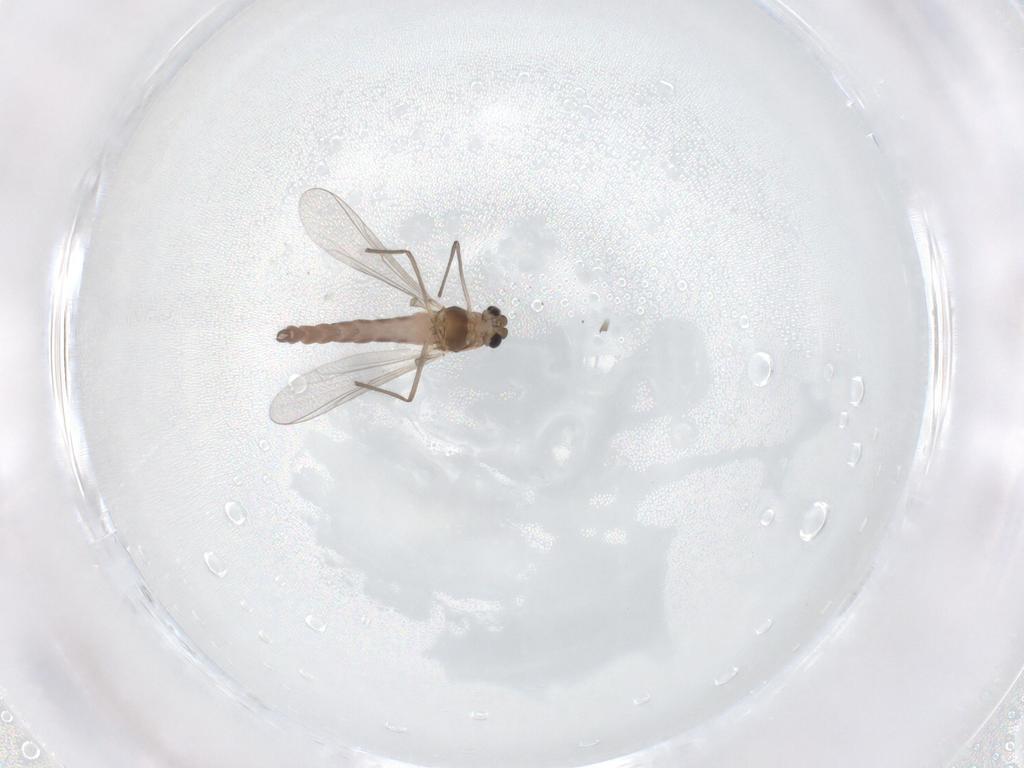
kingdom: Animalia
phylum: Arthropoda
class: Insecta
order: Diptera
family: Chironomidae
